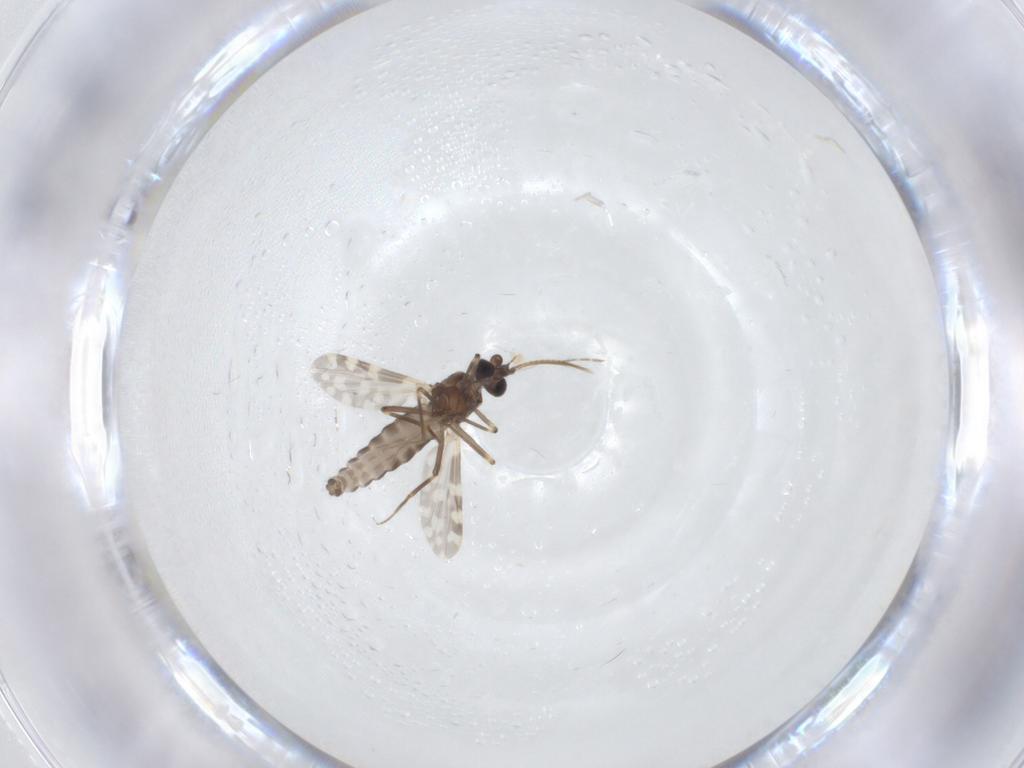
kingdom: Animalia
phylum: Arthropoda
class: Insecta
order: Diptera
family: Ceratopogonidae
